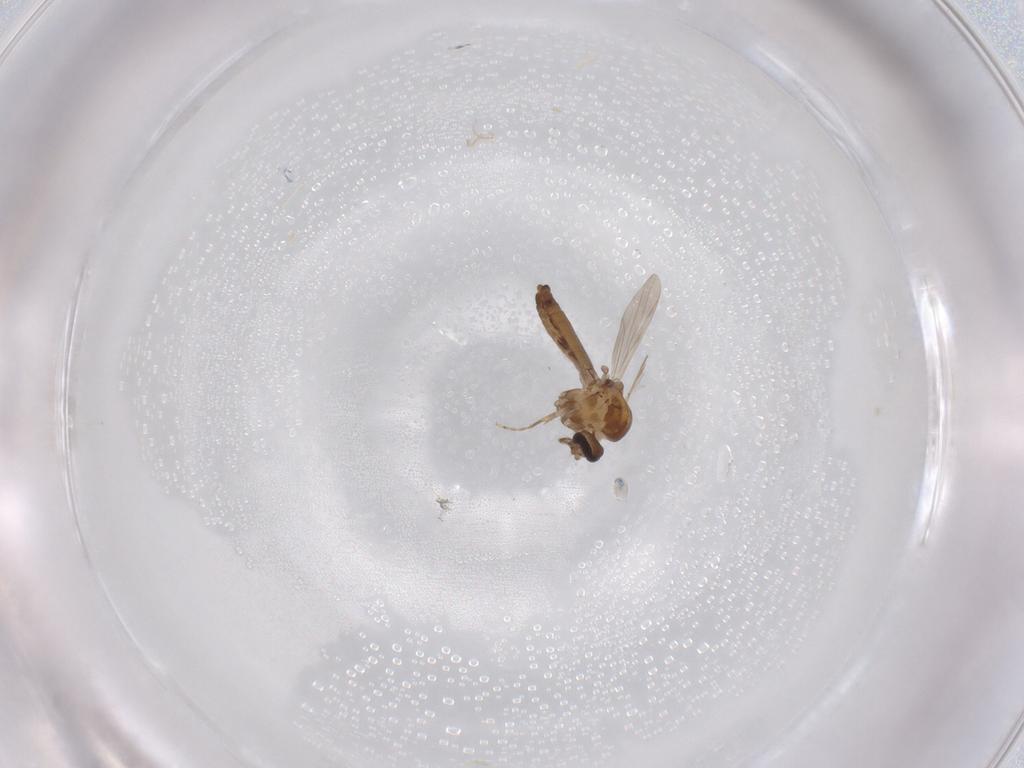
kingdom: Animalia
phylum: Arthropoda
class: Insecta
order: Diptera
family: Ceratopogonidae
